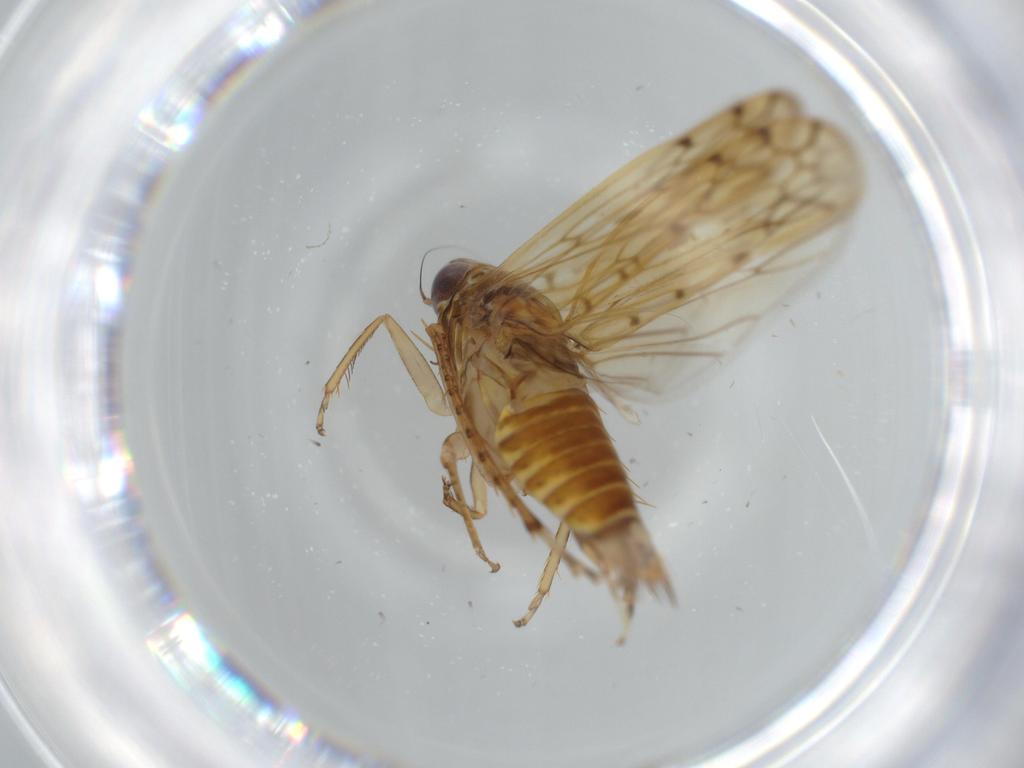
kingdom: Animalia
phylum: Arthropoda
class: Insecta
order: Hemiptera
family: Cicadellidae
